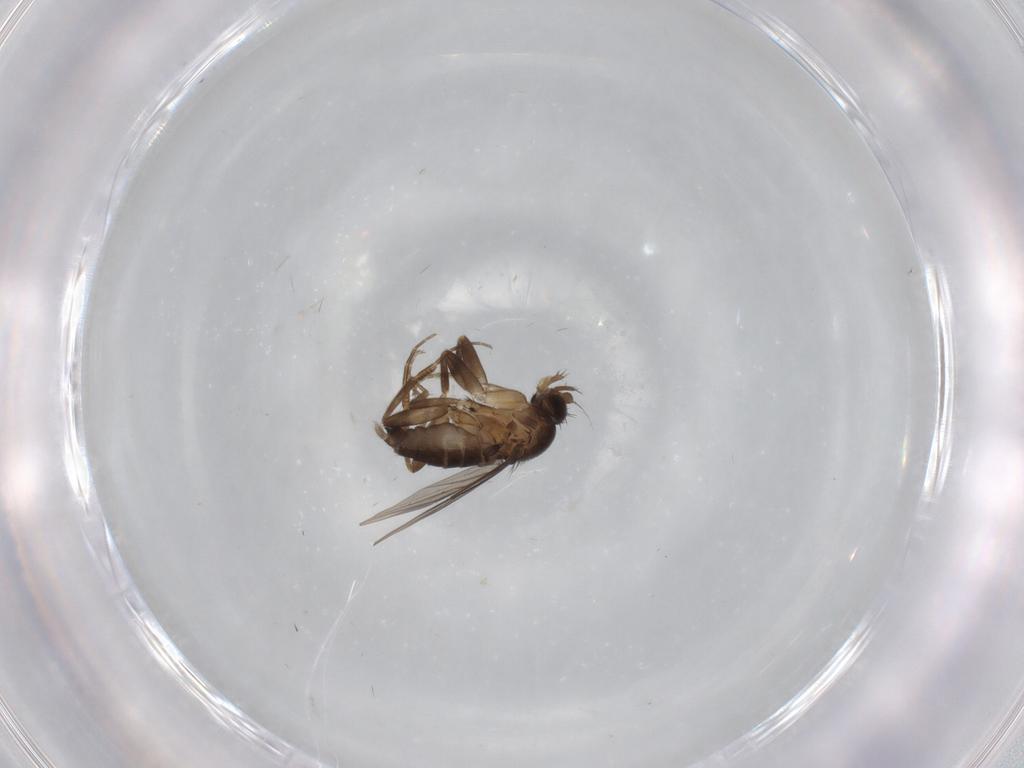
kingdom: Animalia
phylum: Arthropoda
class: Insecta
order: Diptera
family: Phoridae
